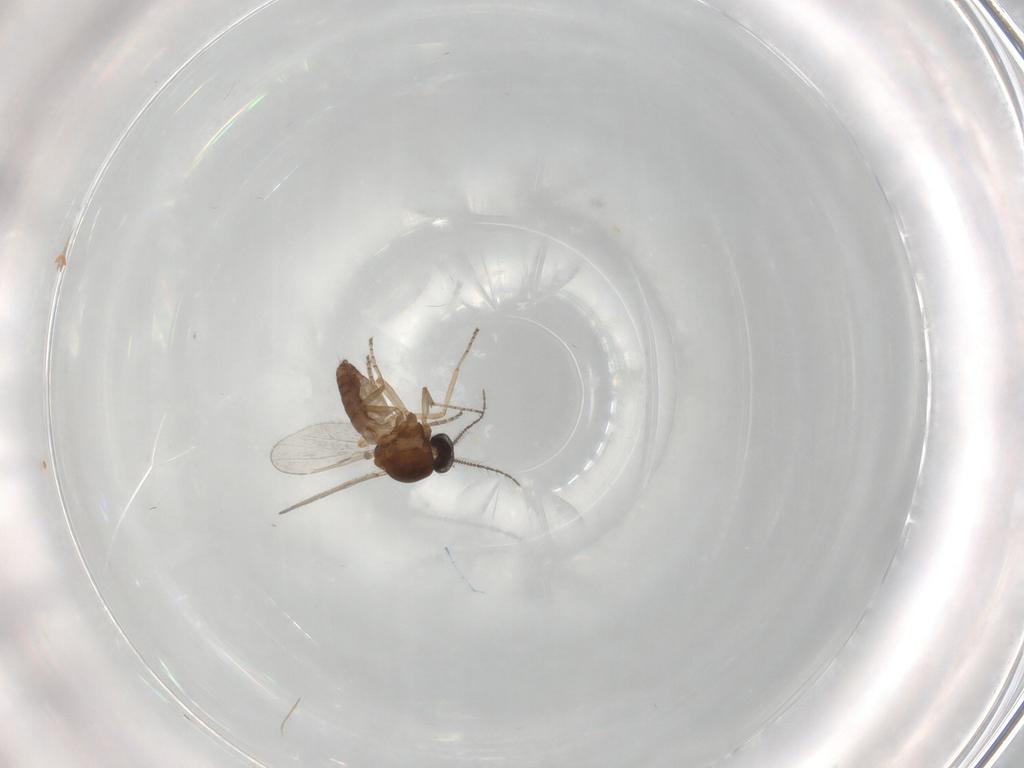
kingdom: Animalia
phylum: Arthropoda
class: Insecta
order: Diptera
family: Ceratopogonidae
